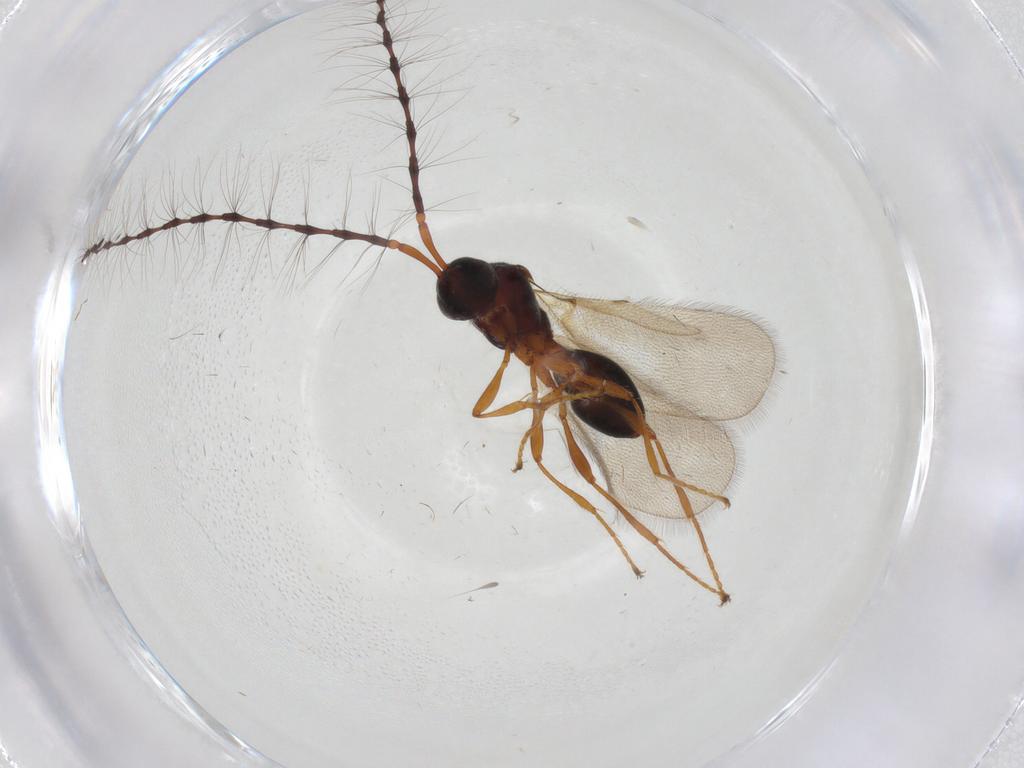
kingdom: Animalia
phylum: Arthropoda
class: Insecta
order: Hymenoptera
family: Diapriidae
